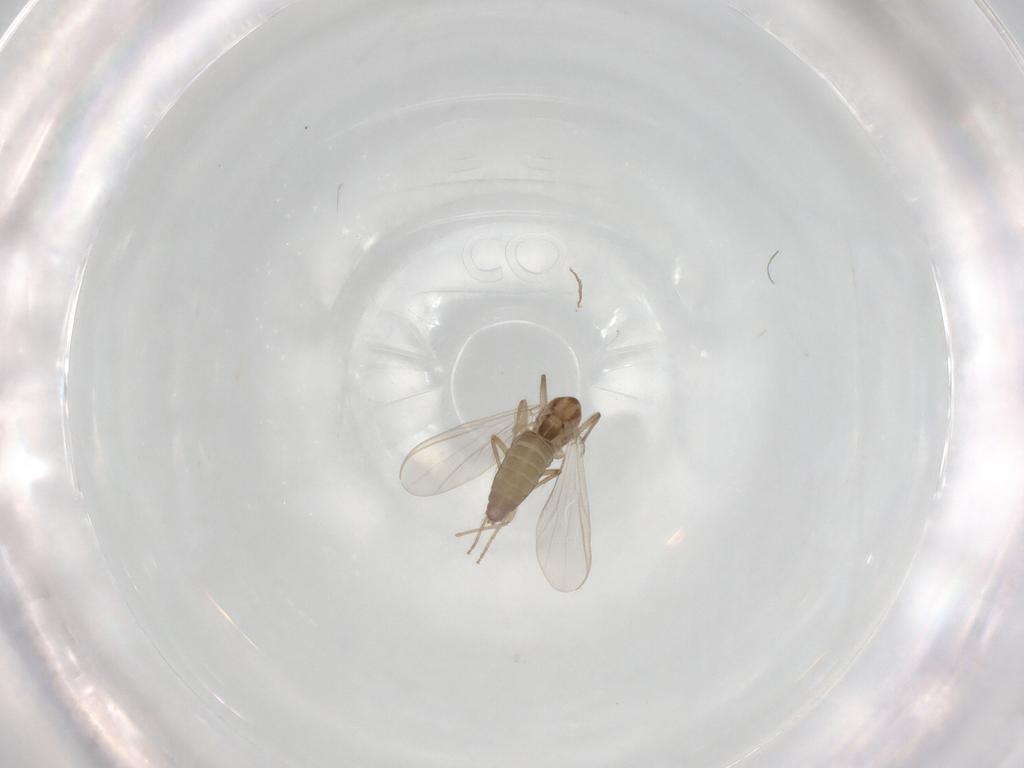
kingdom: Animalia
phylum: Arthropoda
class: Insecta
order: Diptera
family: Chironomidae
